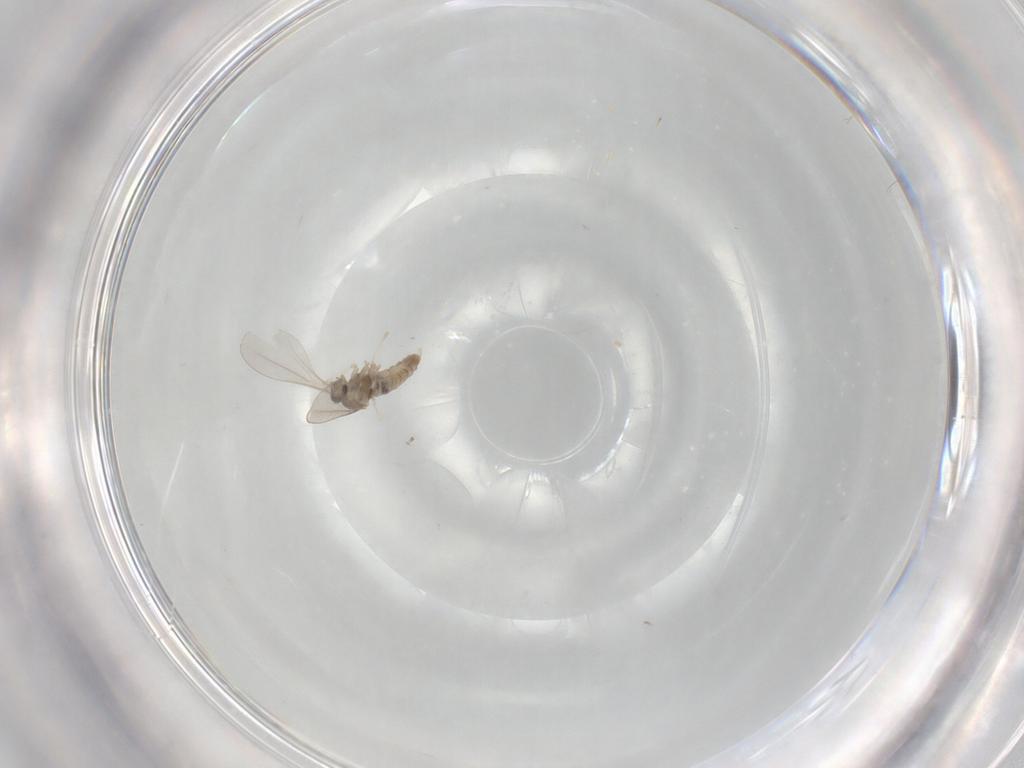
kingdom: Animalia
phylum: Arthropoda
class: Insecta
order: Diptera
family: Cecidomyiidae
